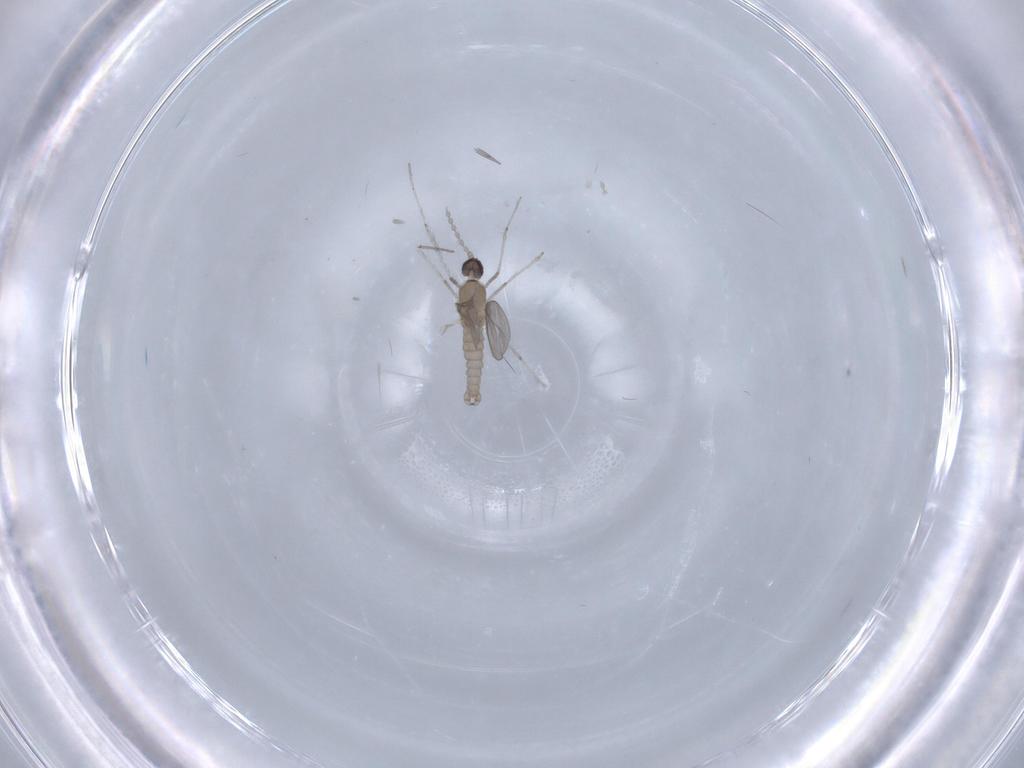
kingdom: Animalia
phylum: Arthropoda
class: Insecta
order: Diptera
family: Cecidomyiidae
